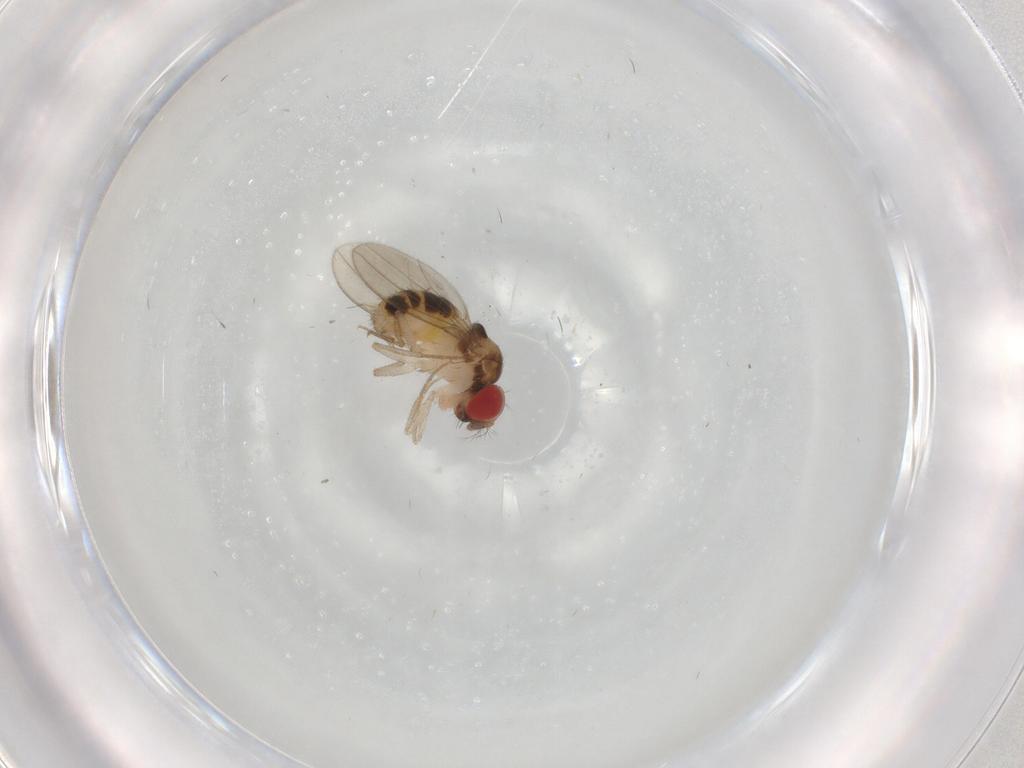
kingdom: Animalia
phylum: Arthropoda
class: Insecta
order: Diptera
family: Drosophilidae
